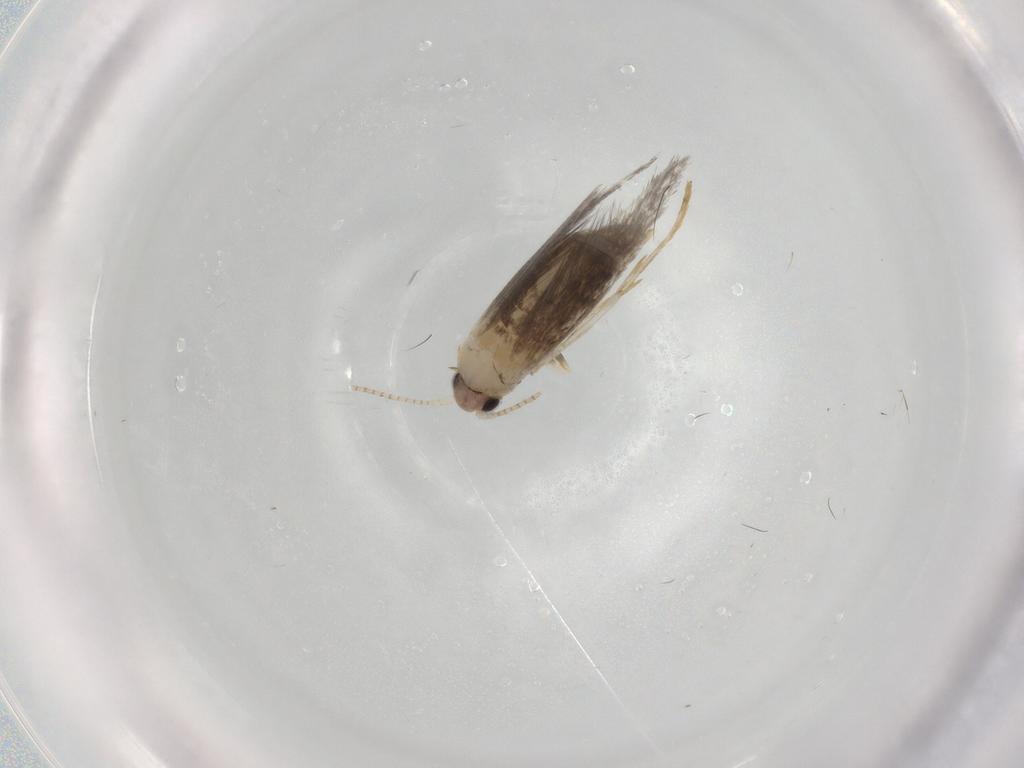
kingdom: Animalia
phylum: Arthropoda
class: Insecta
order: Lepidoptera
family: Tineidae
